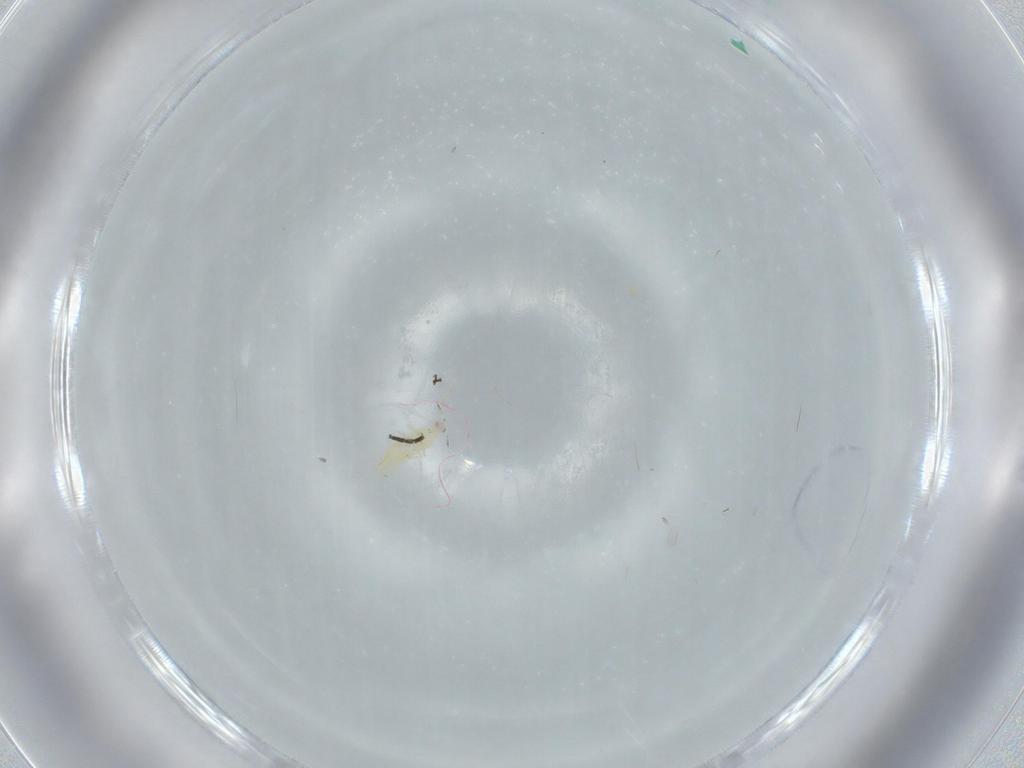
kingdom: Animalia
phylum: Arthropoda
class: Insecta
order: Thysanoptera
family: Thripidae
